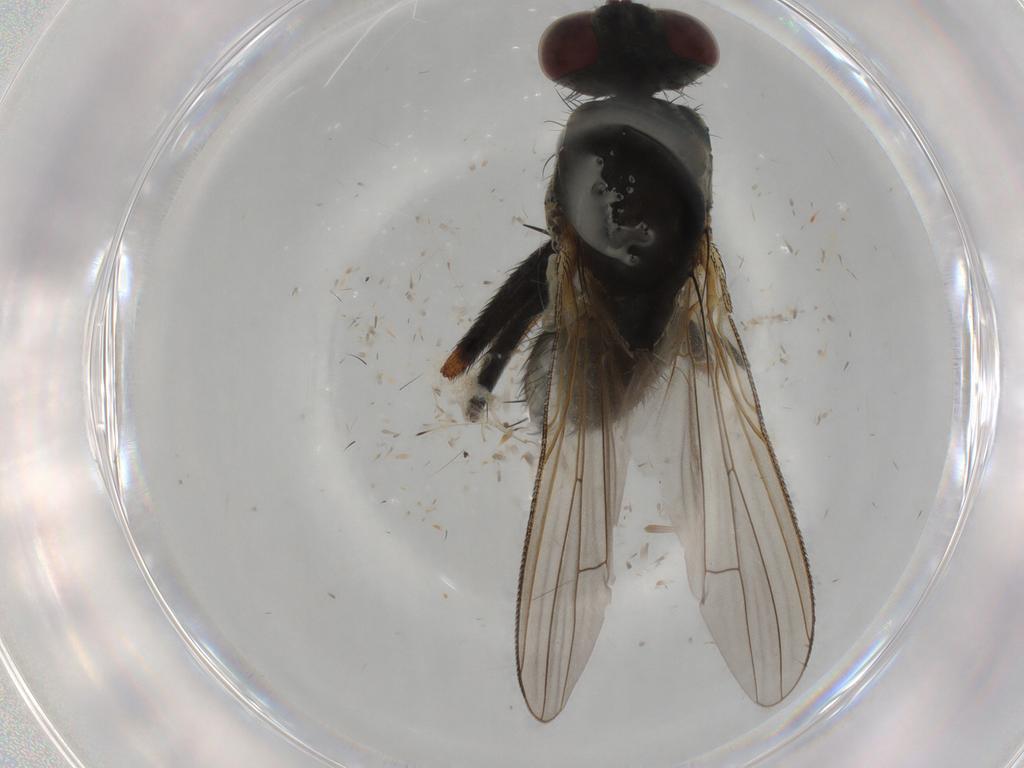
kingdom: Animalia
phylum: Arthropoda
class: Insecta
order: Diptera
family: Muscidae
